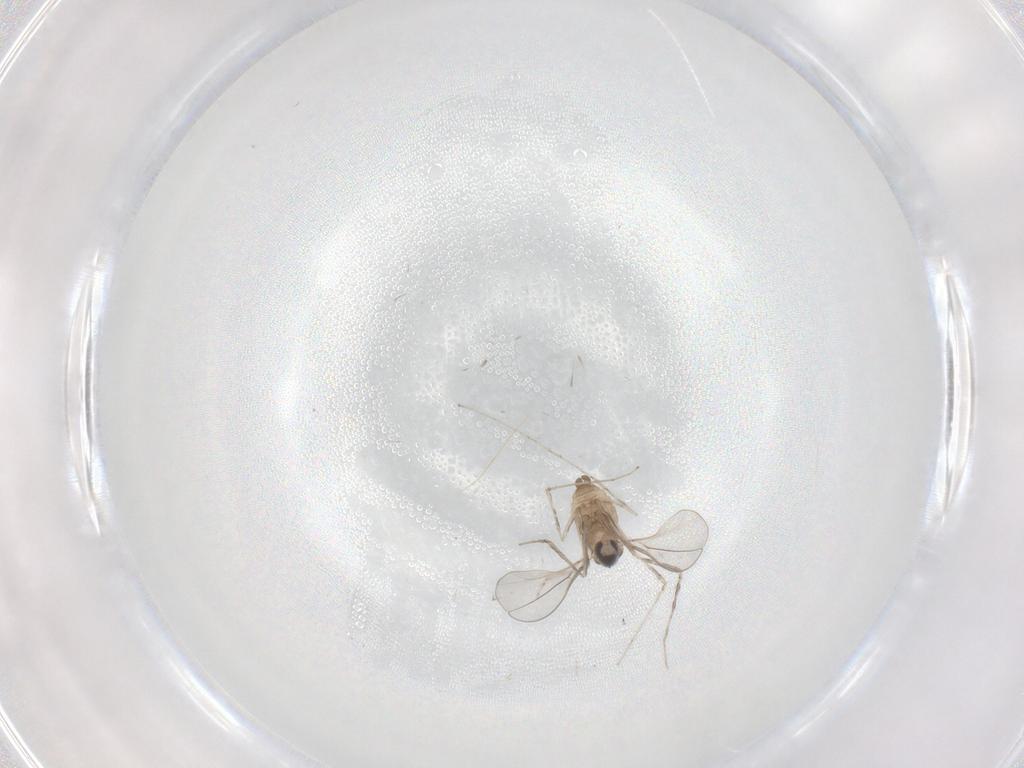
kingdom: Animalia
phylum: Arthropoda
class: Insecta
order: Diptera
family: Cecidomyiidae
